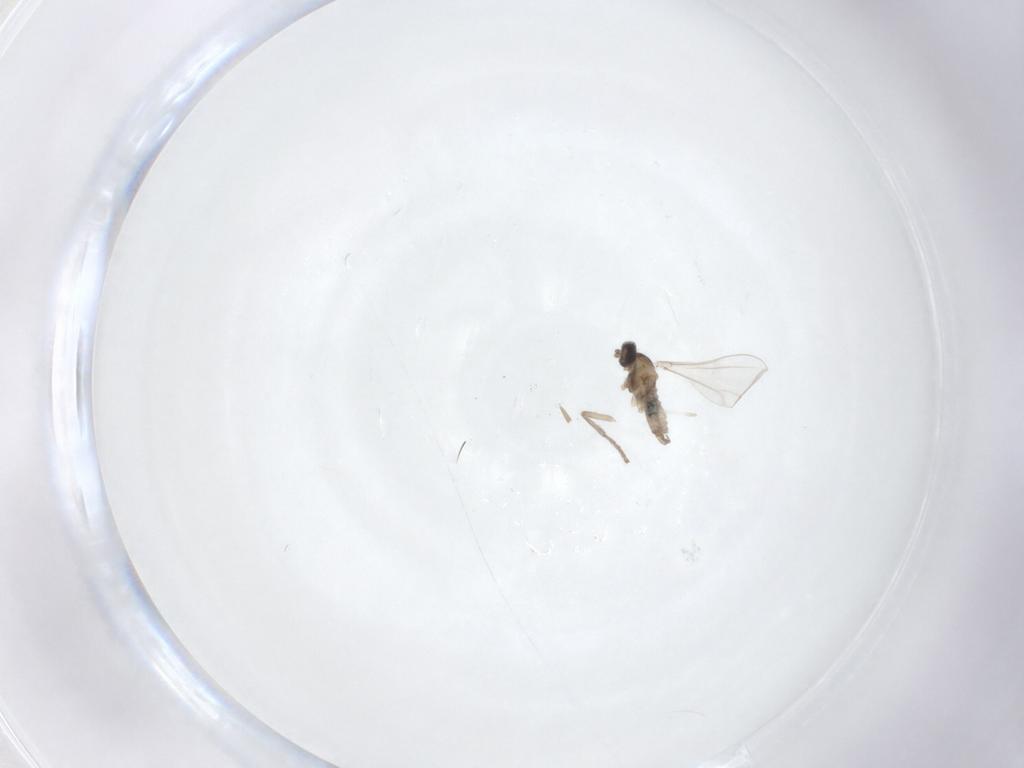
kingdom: Animalia
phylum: Arthropoda
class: Insecta
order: Diptera
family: Cecidomyiidae
